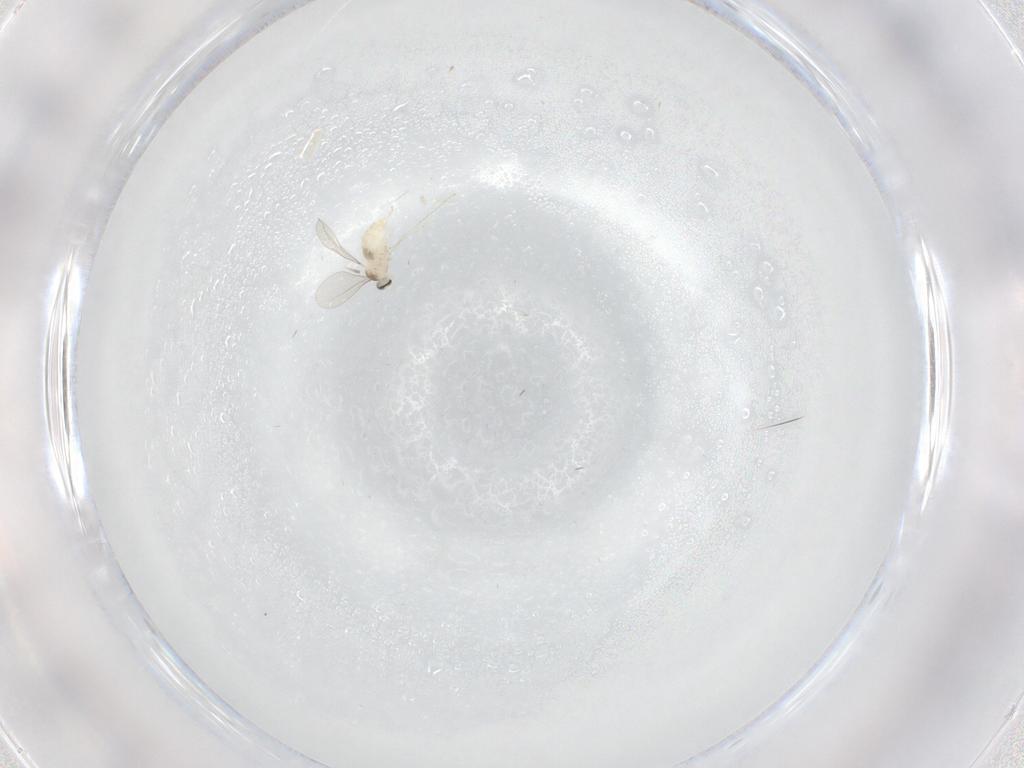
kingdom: Animalia
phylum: Arthropoda
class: Insecta
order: Diptera
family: Cecidomyiidae
